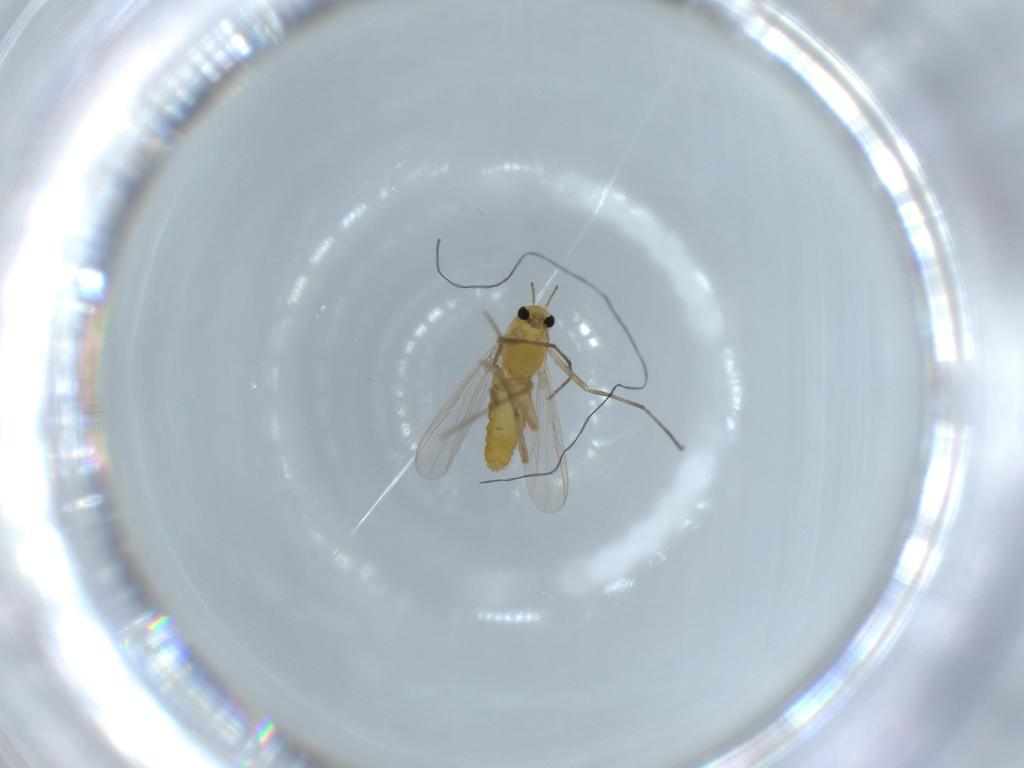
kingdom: Animalia
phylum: Arthropoda
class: Insecta
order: Diptera
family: Chironomidae
